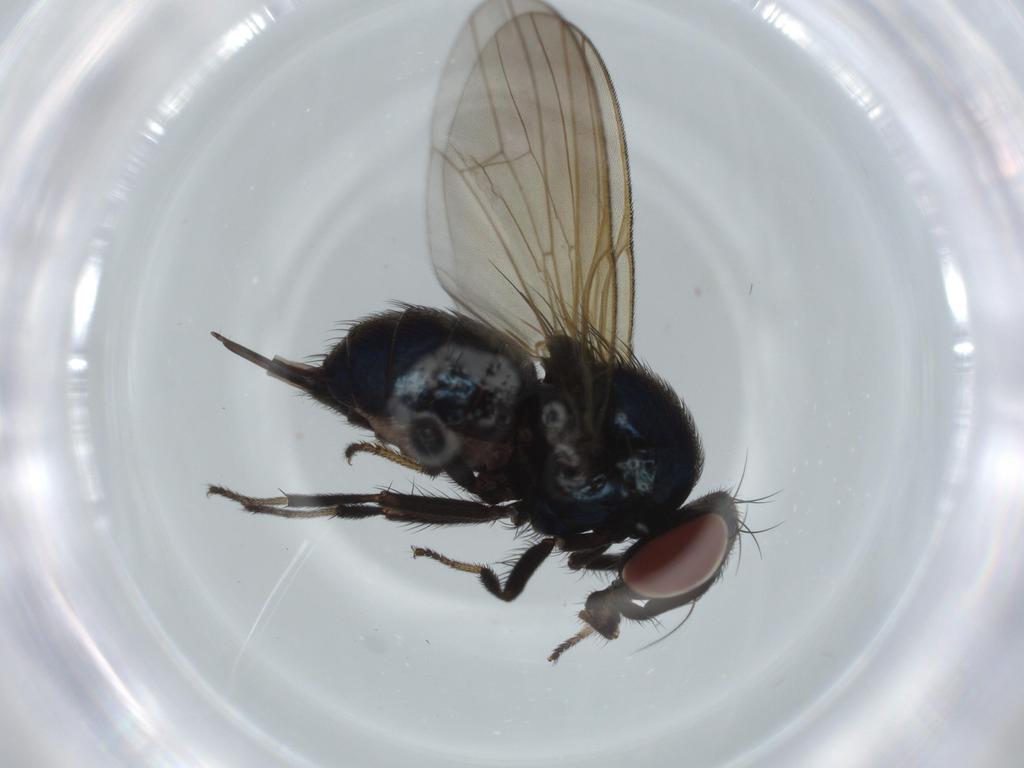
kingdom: Animalia
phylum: Arthropoda
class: Insecta
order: Diptera
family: Lonchaeidae
